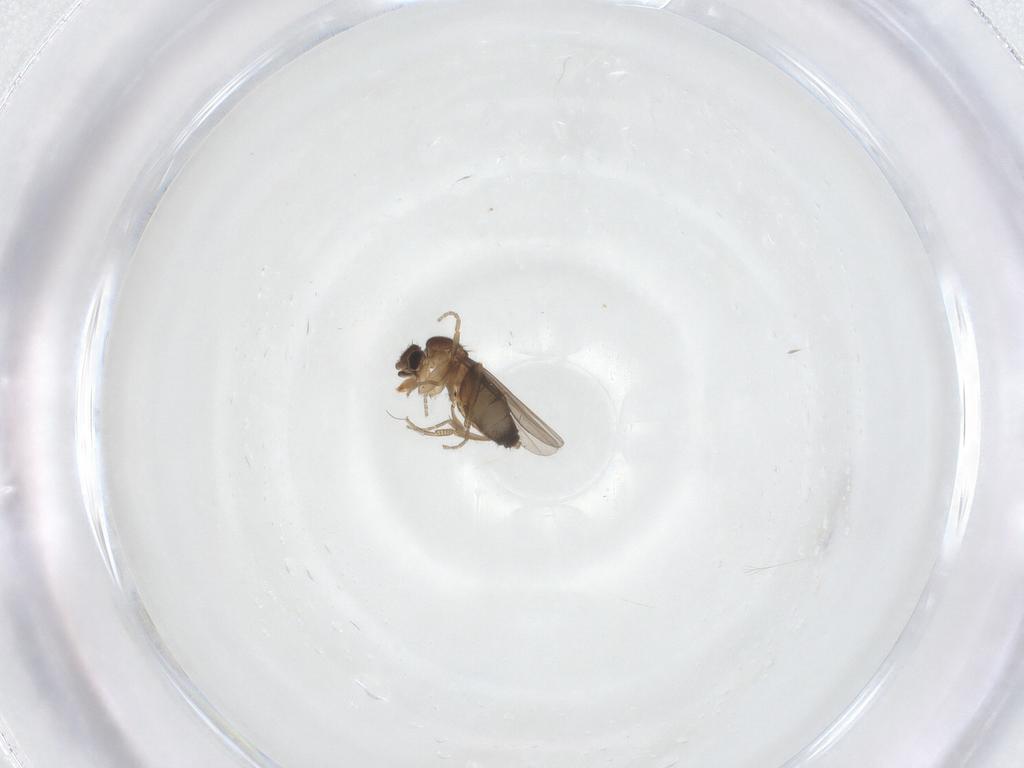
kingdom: Animalia
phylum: Arthropoda
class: Insecta
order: Diptera
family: Phoridae
